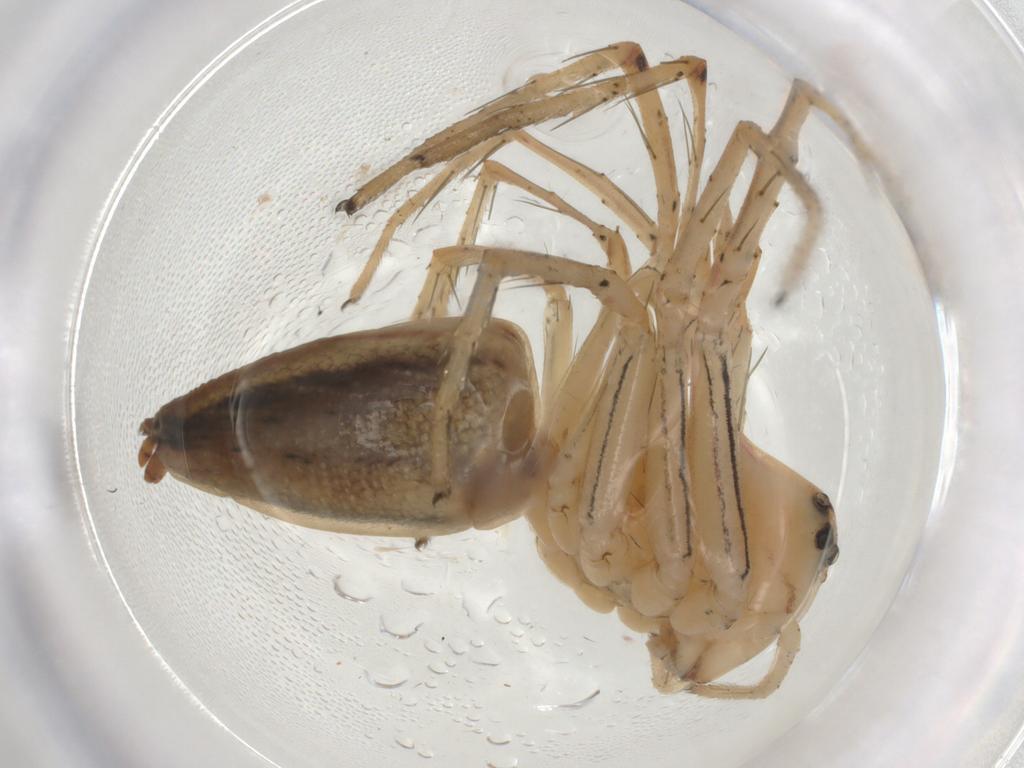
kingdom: Animalia
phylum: Arthropoda
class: Arachnida
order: Araneae
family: Oxyopidae
